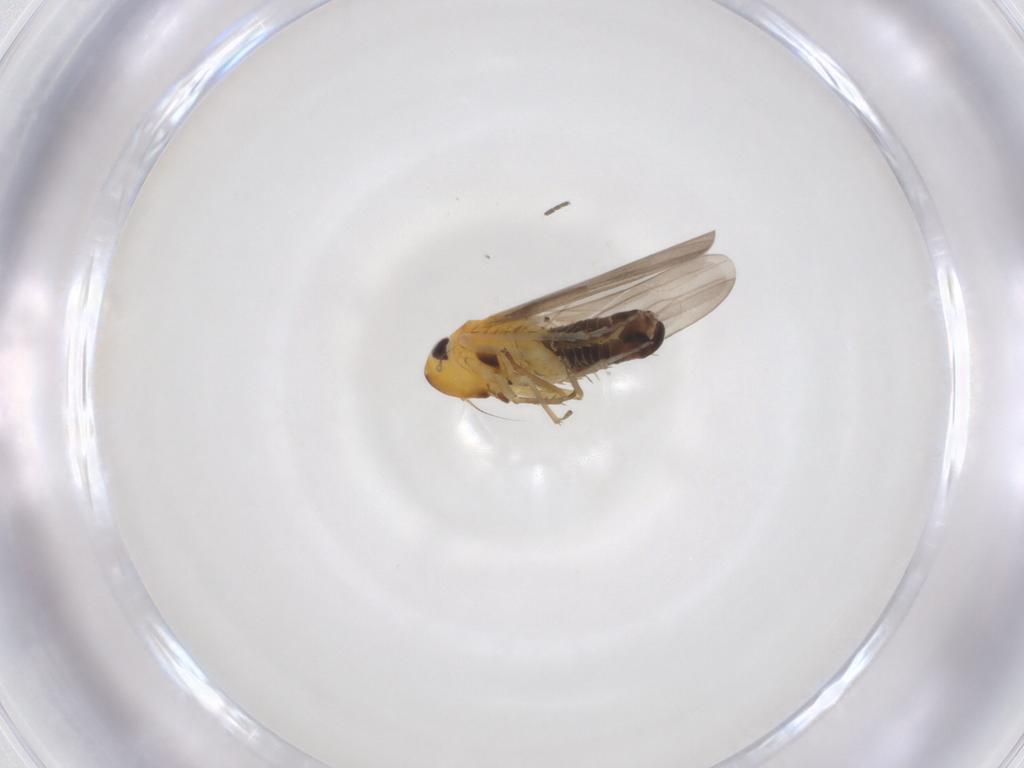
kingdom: Animalia
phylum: Arthropoda
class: Insecta
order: Hemiptera
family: Cicadellidae
